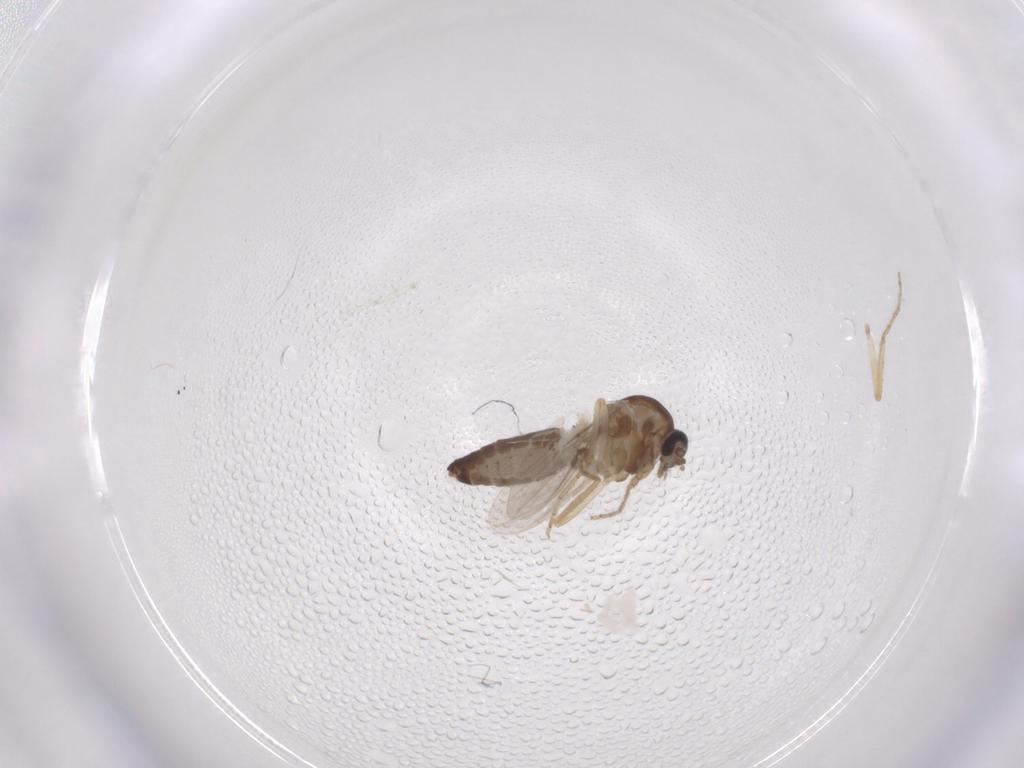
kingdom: Animalia
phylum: Arthropoda
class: Insecta
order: Diptera
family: Ceratopogonidae
